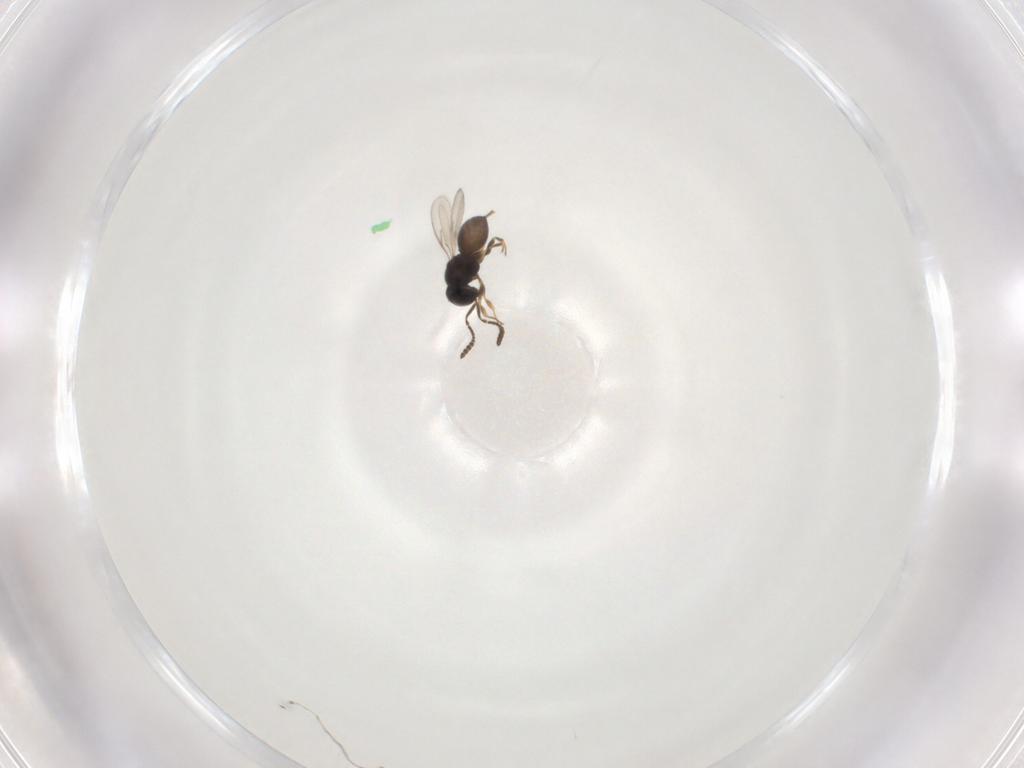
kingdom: Animalia
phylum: Arthropoda
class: Insecta
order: Hymenoptera
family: Scelionidae
